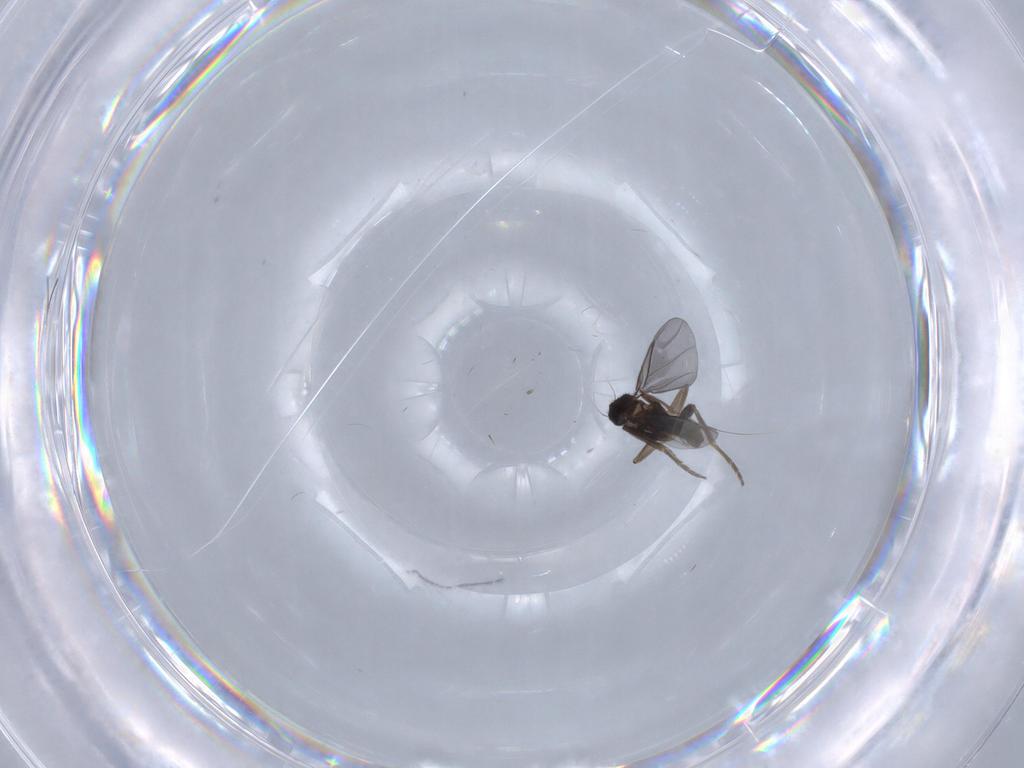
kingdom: Animalia
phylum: Arthropoda
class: Insecta
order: Diptera
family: Phoridae
